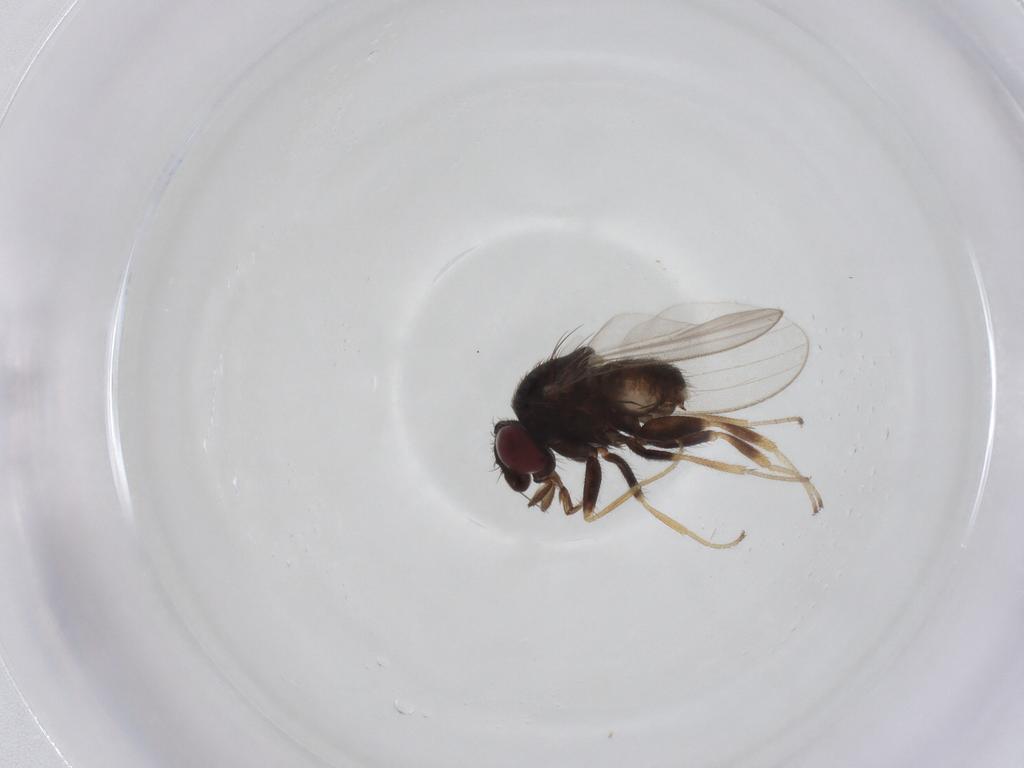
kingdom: Animalia
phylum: Arthropoda
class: Insecta
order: Diptera
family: Milichiidae
